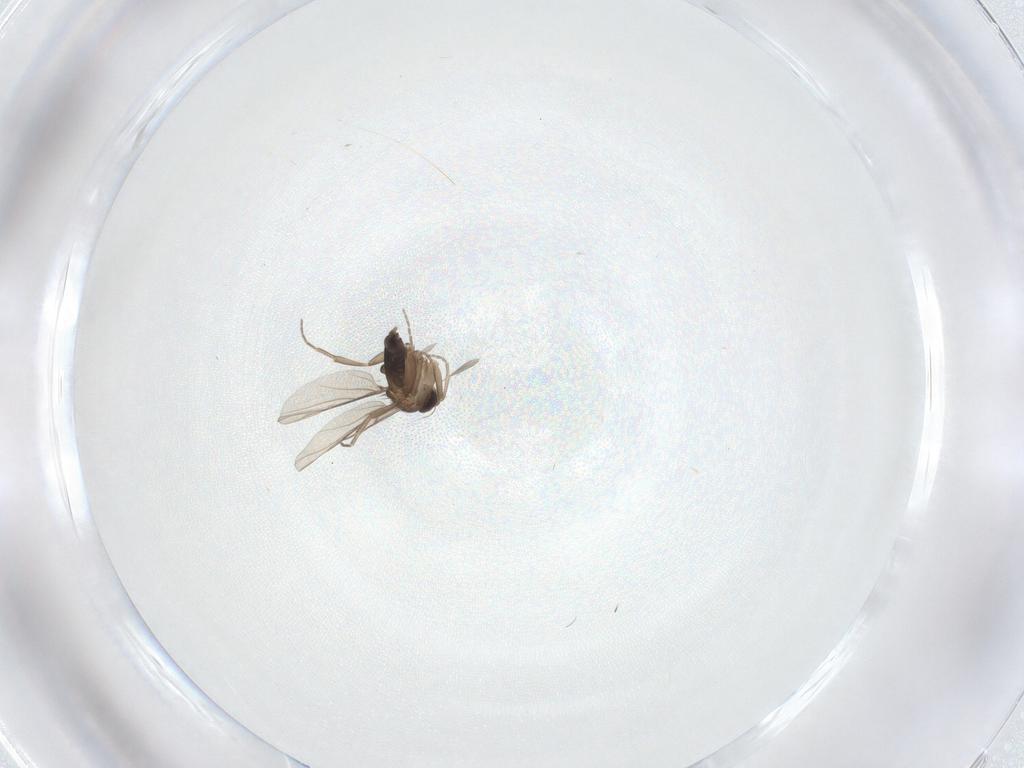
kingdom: Animalia
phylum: Arthropoda
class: Insecta
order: Diptera
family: Phoridae
